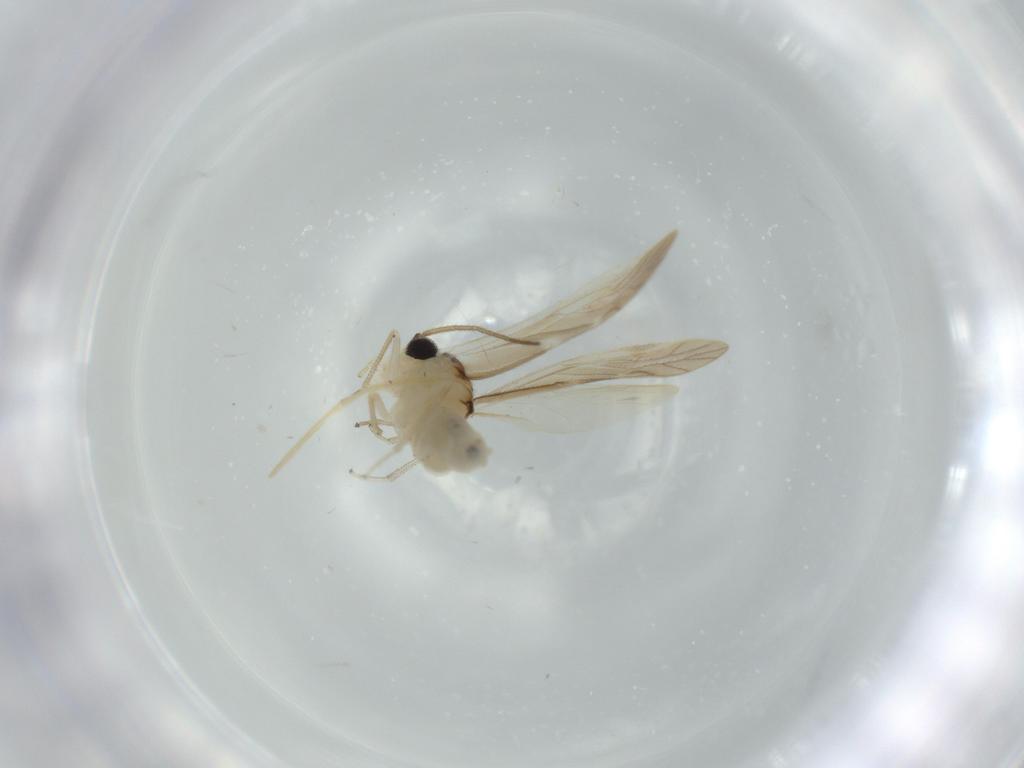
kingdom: Animalia
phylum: Arthropoda
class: Insecta
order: Psocodea
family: Caeciliusidae
